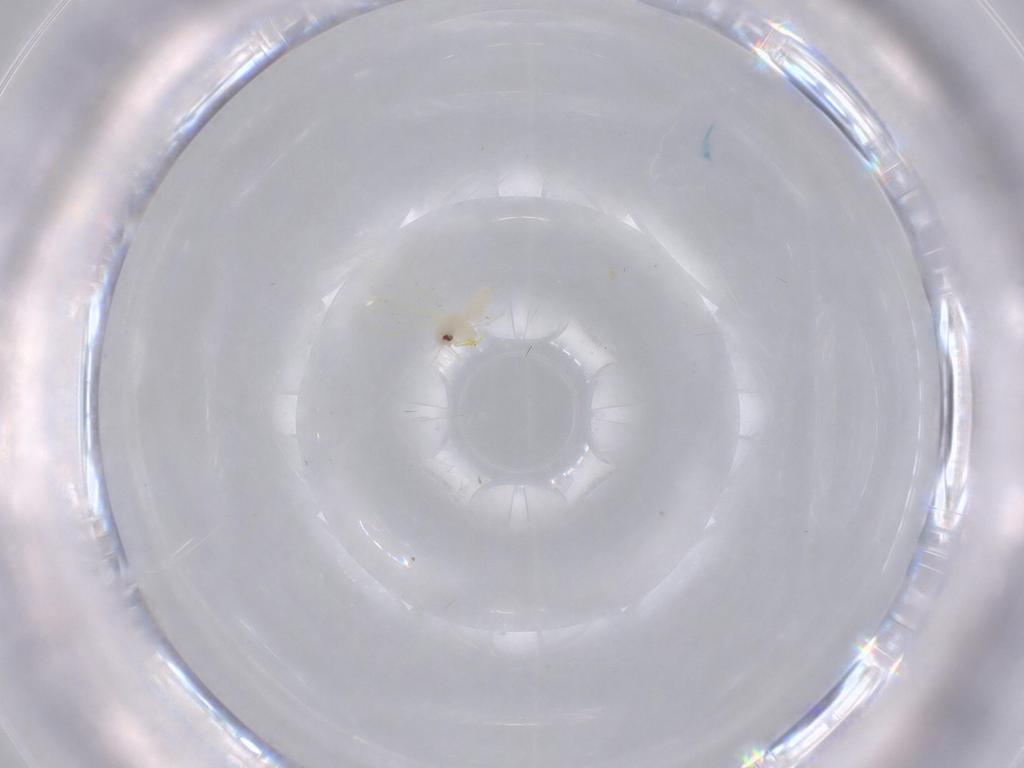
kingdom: Animalia
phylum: Arthropoda
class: Insecta
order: Hemiptera
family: Aleyrodidae
